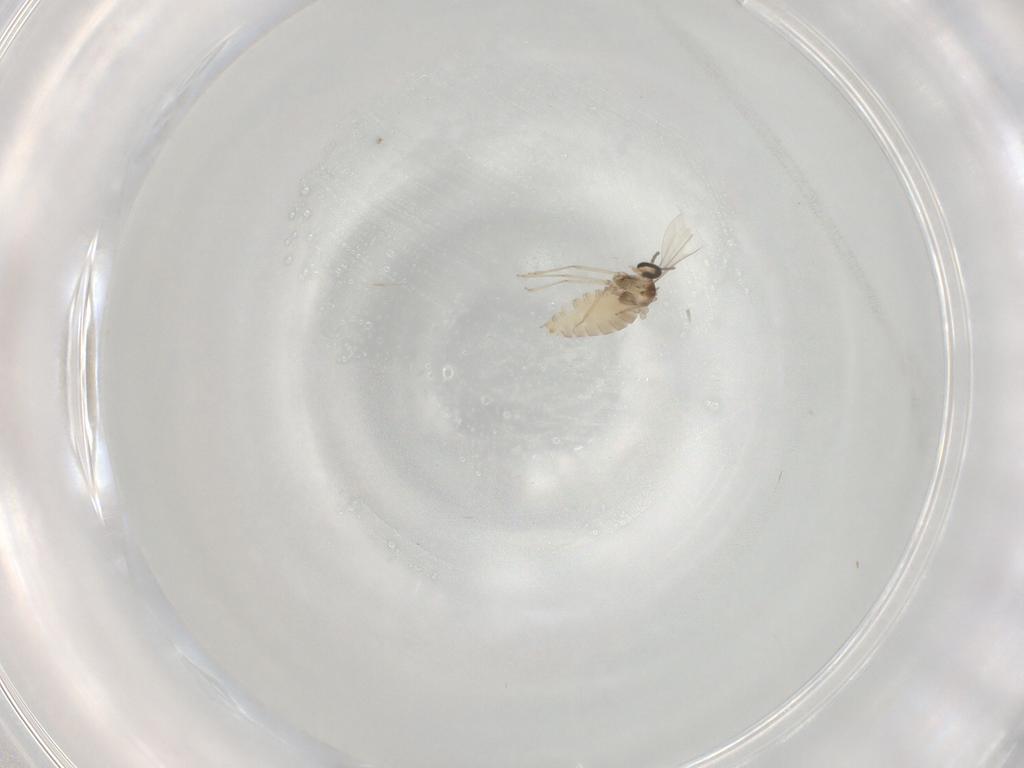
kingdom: Animalia
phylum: Arthropoda
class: Insecta
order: Diptera
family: Cecidomyiidae
